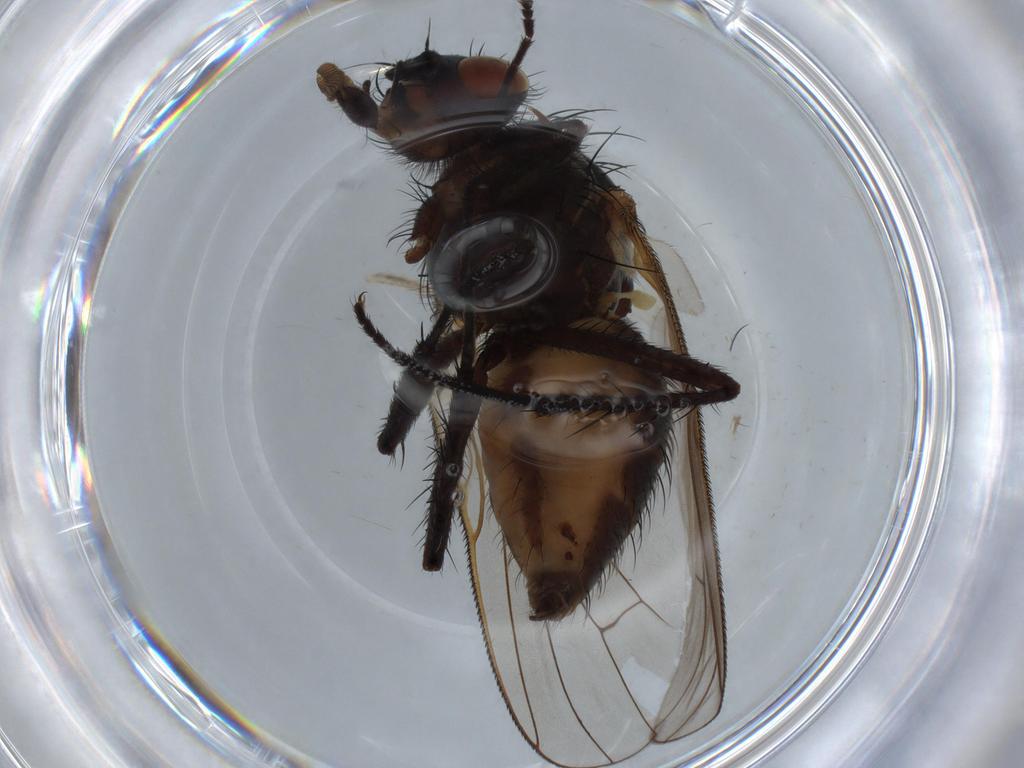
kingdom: Animalia
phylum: Arthropoda
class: Insecta
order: Diptera
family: Anthomyiidae
